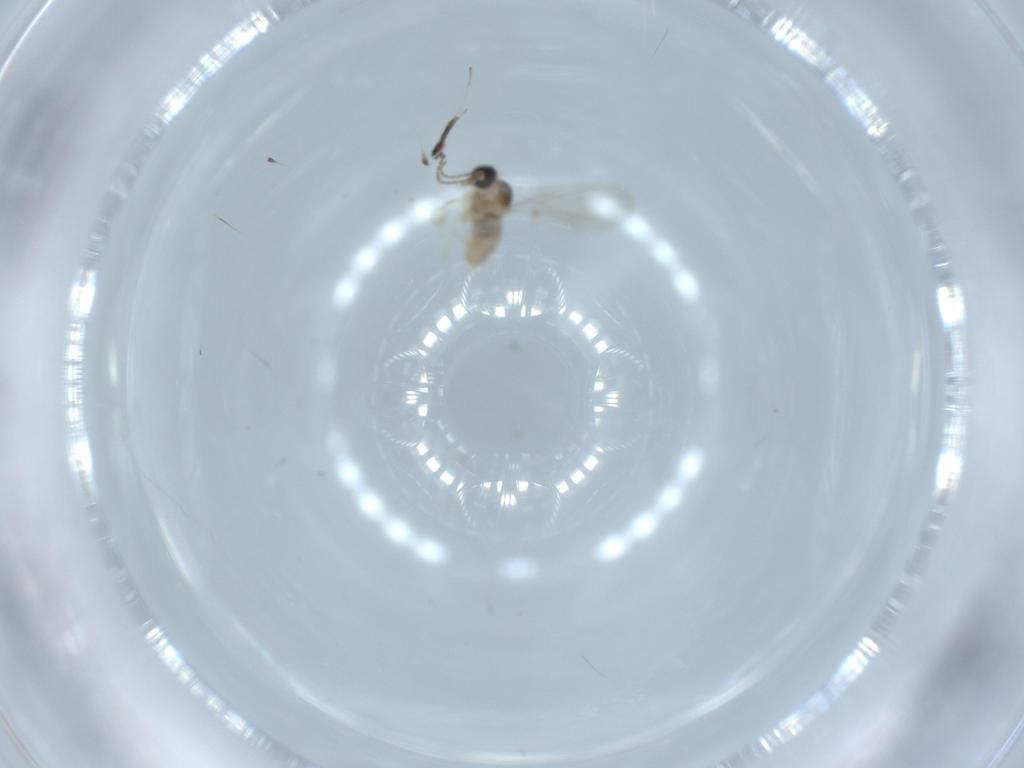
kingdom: Animalia
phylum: Arthropoda
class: Insecta
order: Diptera
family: Cecidomyiidae
